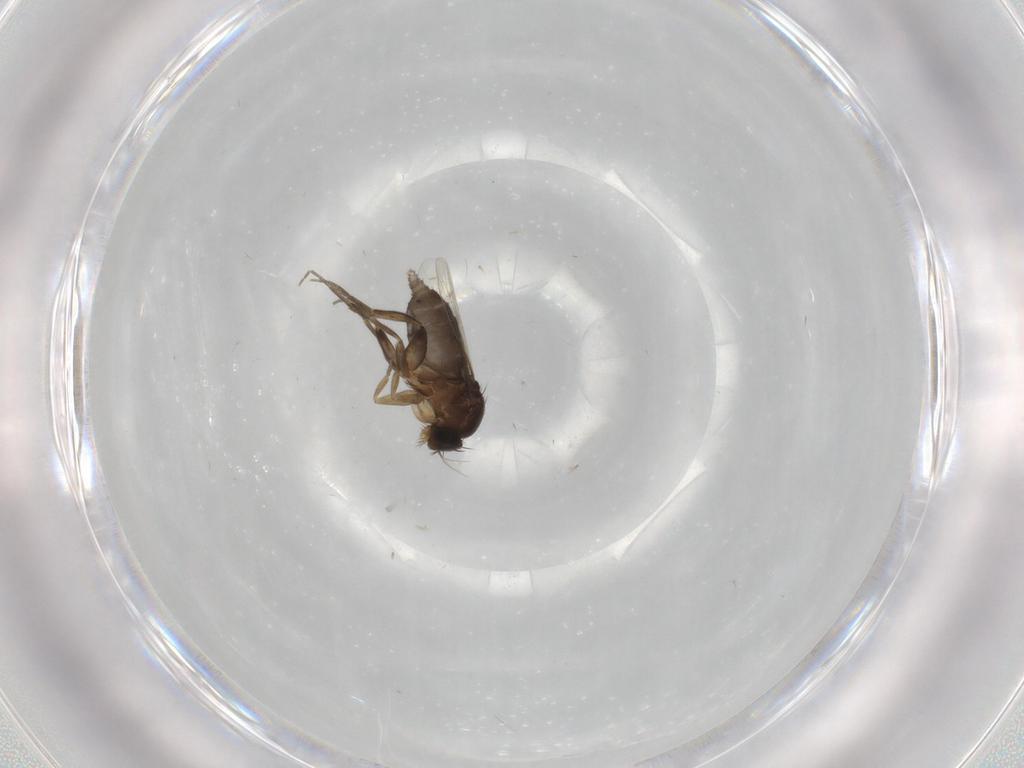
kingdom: Animalia
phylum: Arthropoda
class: Insecta
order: Diptera
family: Phoridae
